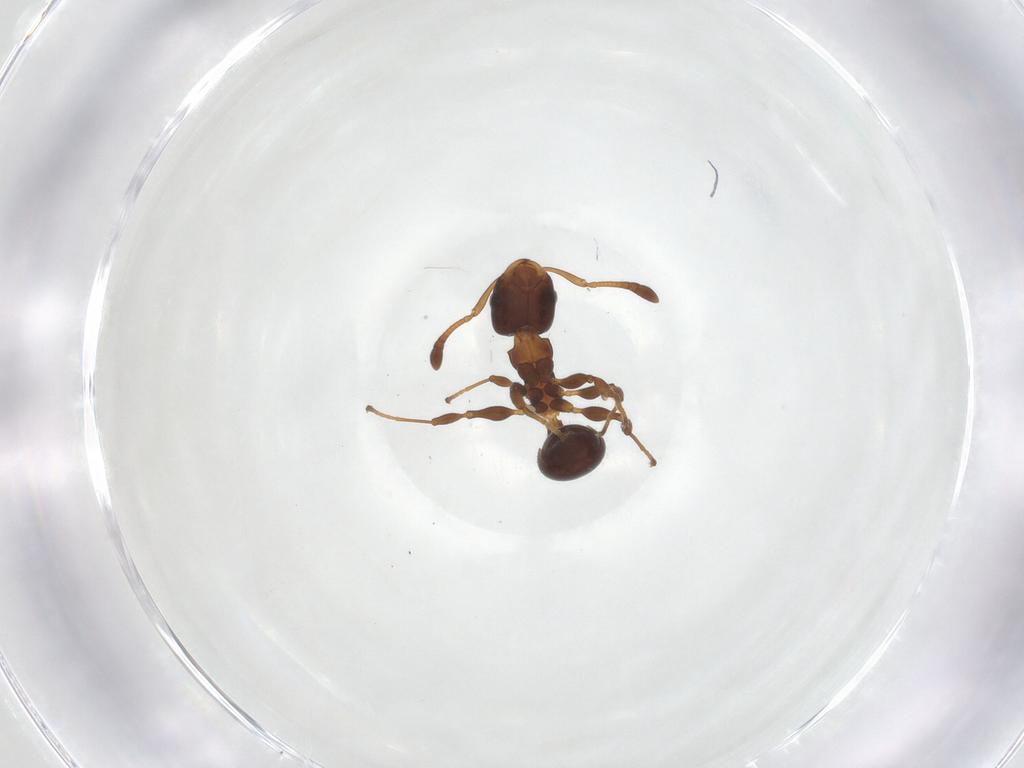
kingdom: Animalia
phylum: Arthropoda
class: Insecta
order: Hymenoptera
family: Formicidae
